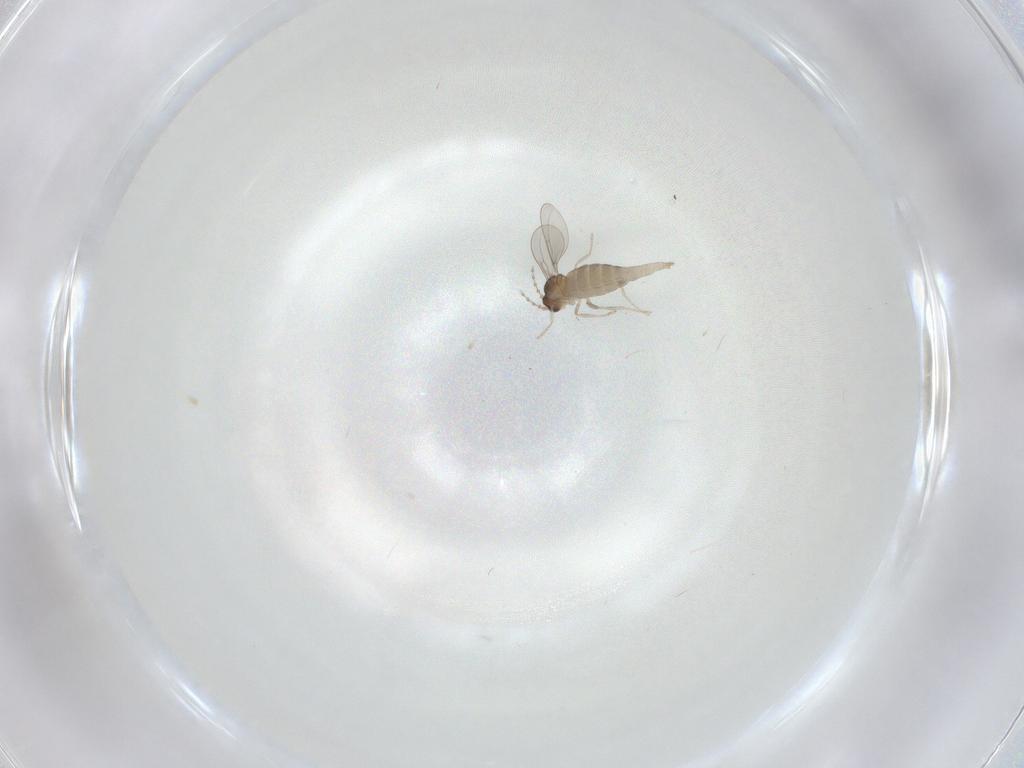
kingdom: Animalia
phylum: Arthropoda
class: Insecta
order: Diptera
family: Cecidomyiidae
